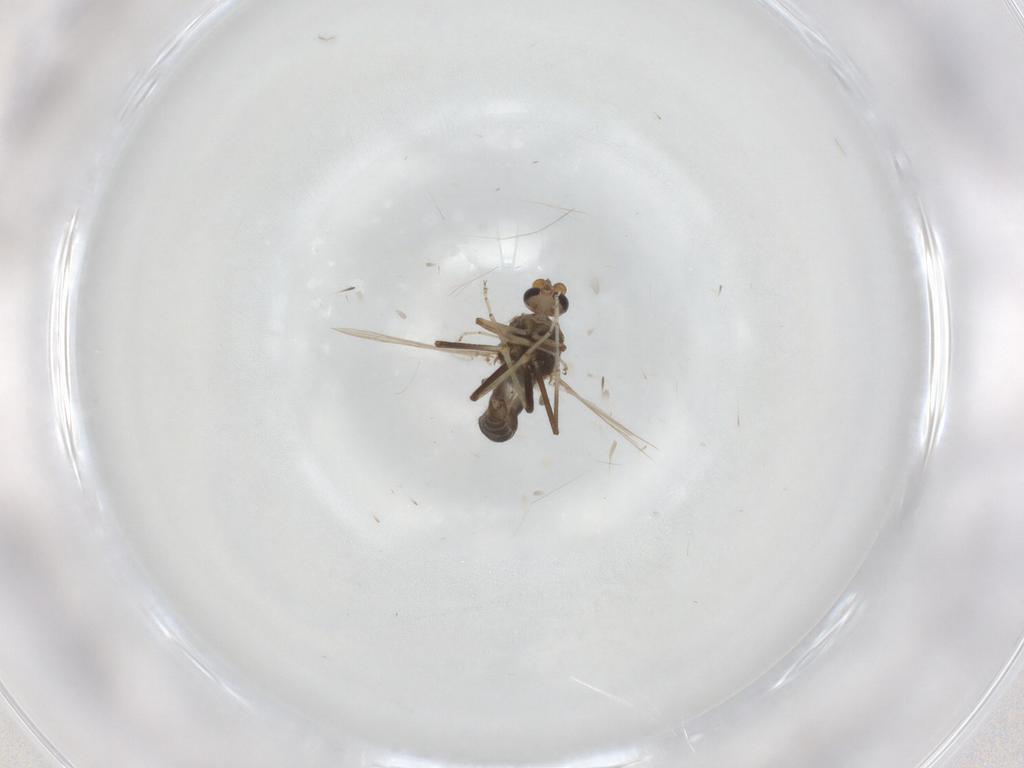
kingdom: Animalia
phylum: Arthropoda
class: Insecta
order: Diptera
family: Ceratopogonidae
